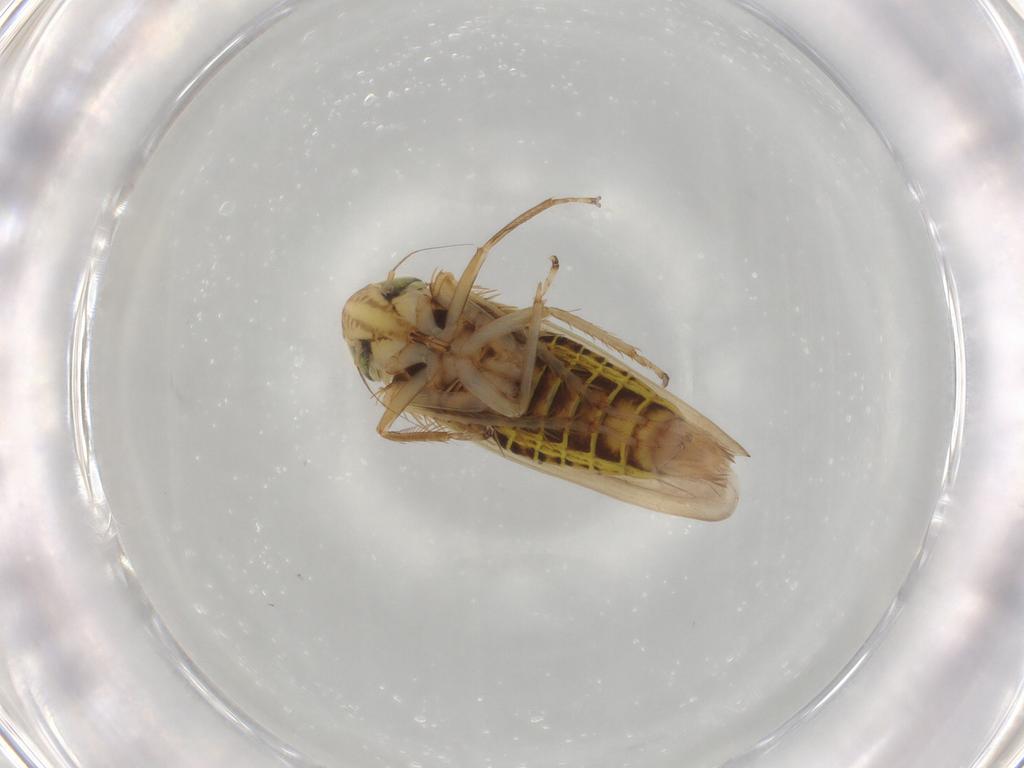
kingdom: Animalia
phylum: Arthropoda
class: Insecta
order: Hemiptera
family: Cicadellidae
